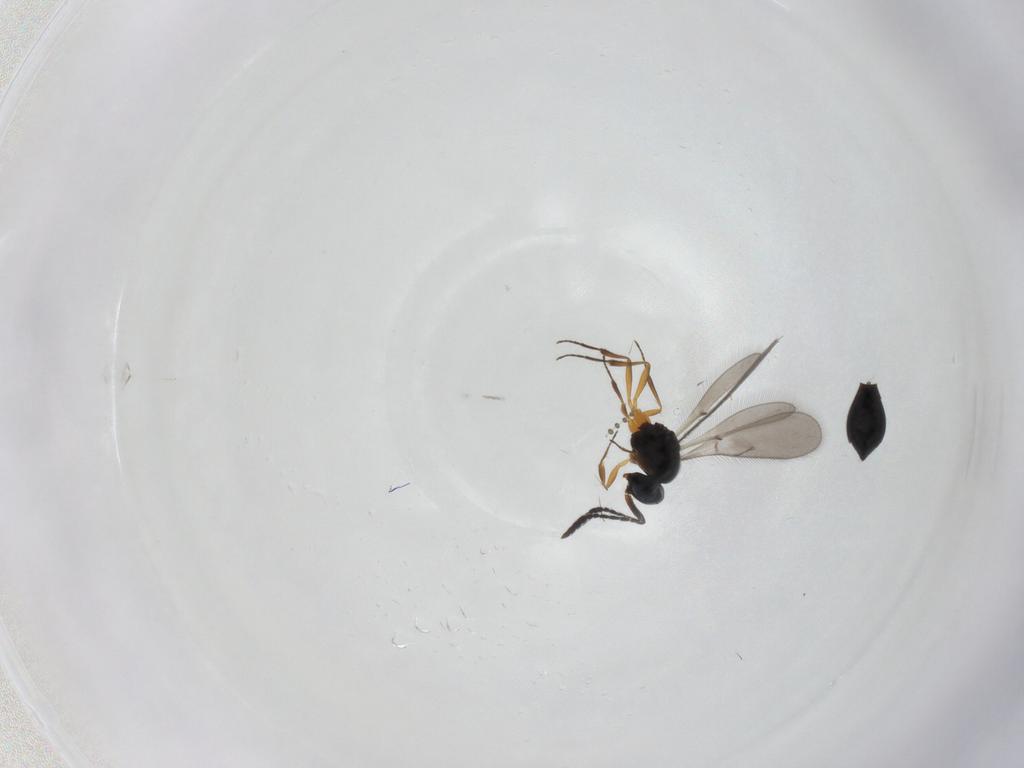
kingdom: Animalia
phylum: Arthropoda
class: Insecta
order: Hymenoptera
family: Scelionidae
